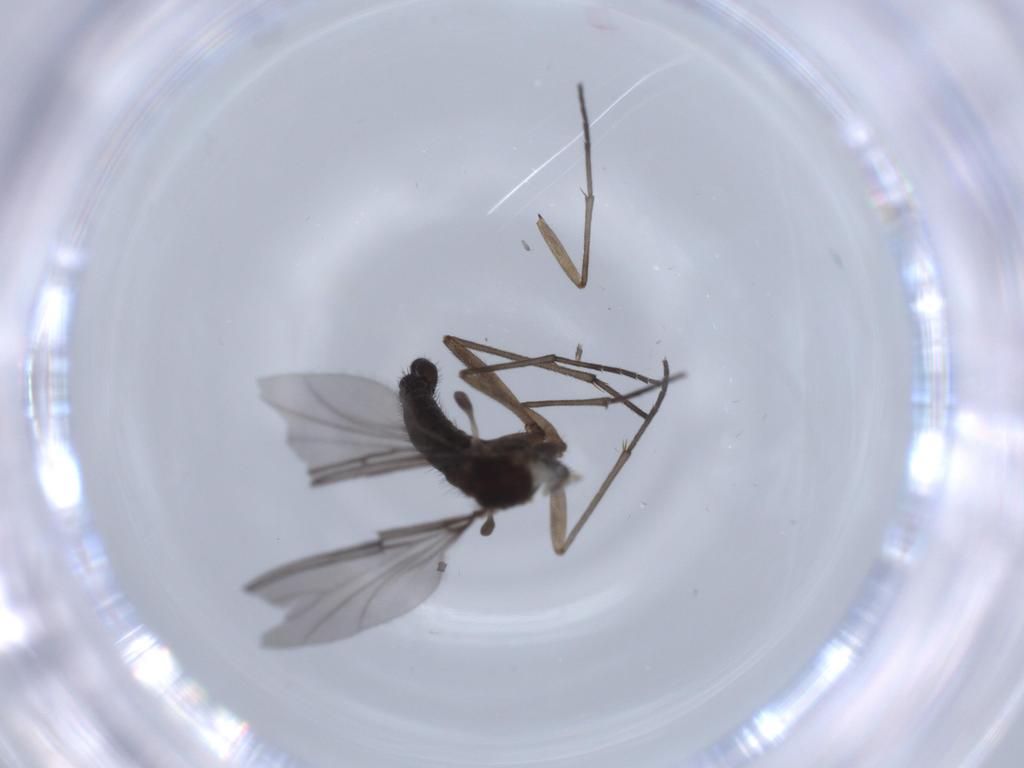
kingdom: Animalia
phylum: Arthropoda
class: Insecta
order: Diptera
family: Sciaridae
